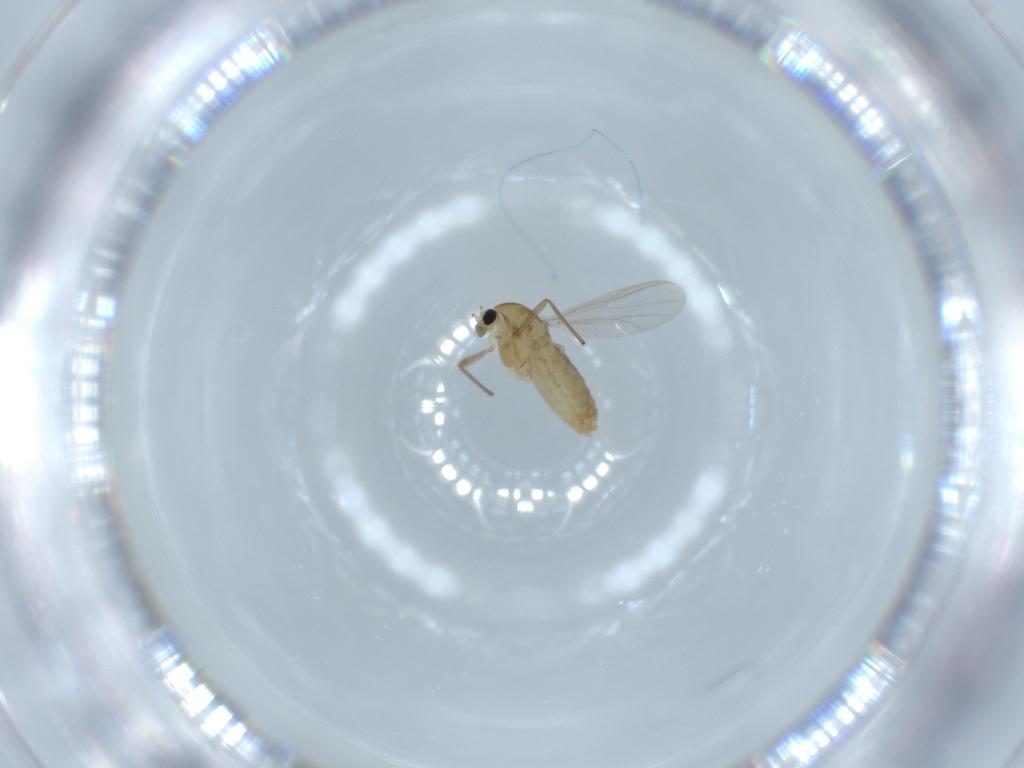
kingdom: Animalia
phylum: Arthropoda
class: Insecta
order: Diptera
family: Chironomidae
